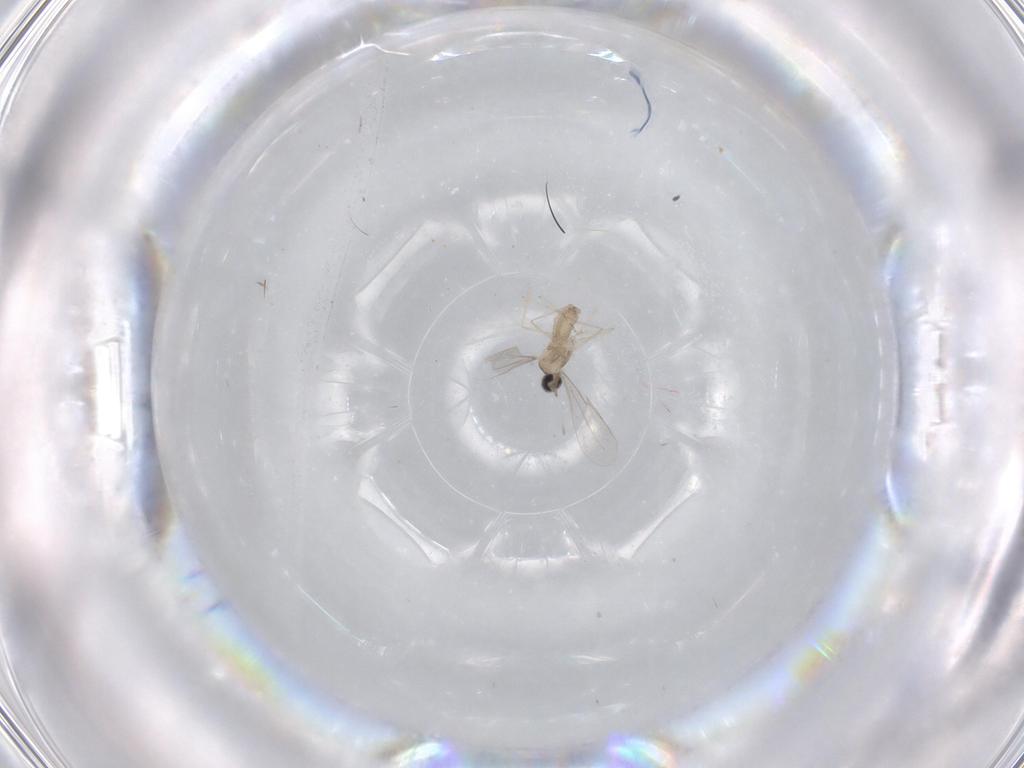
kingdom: Animalia
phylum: Arthropoda
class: Insecta
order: Diptera
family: Cecidomyiidae
